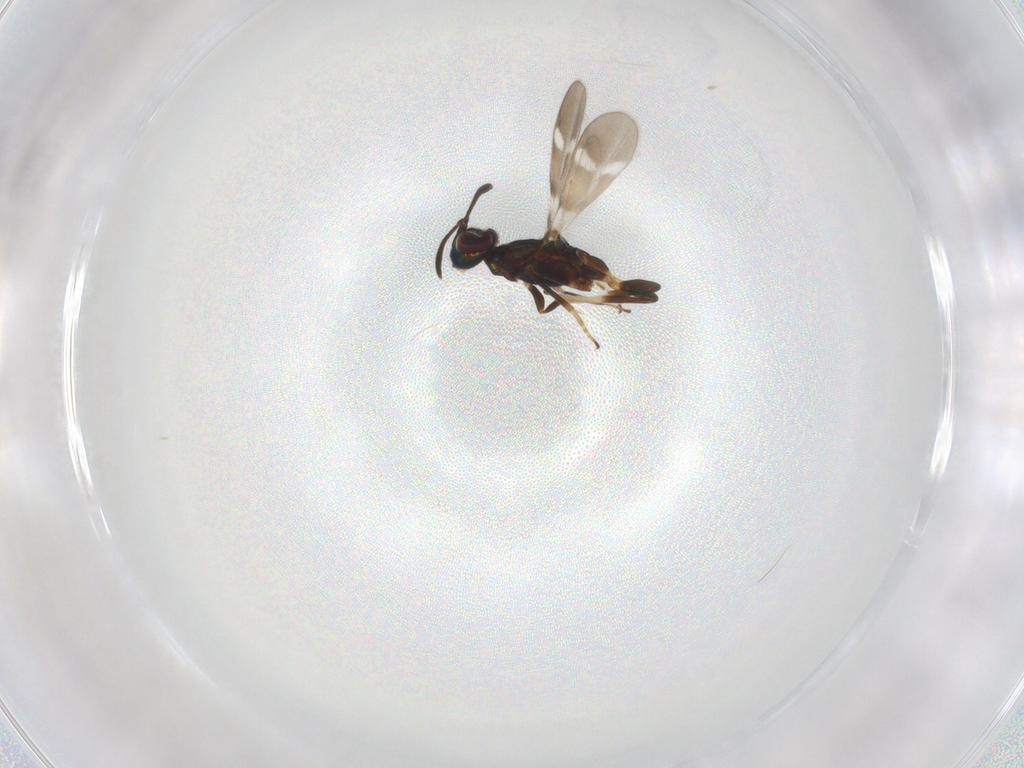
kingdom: Animalia
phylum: Arthropoda
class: Insecta
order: Hymenoptera
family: Eupelmidae
